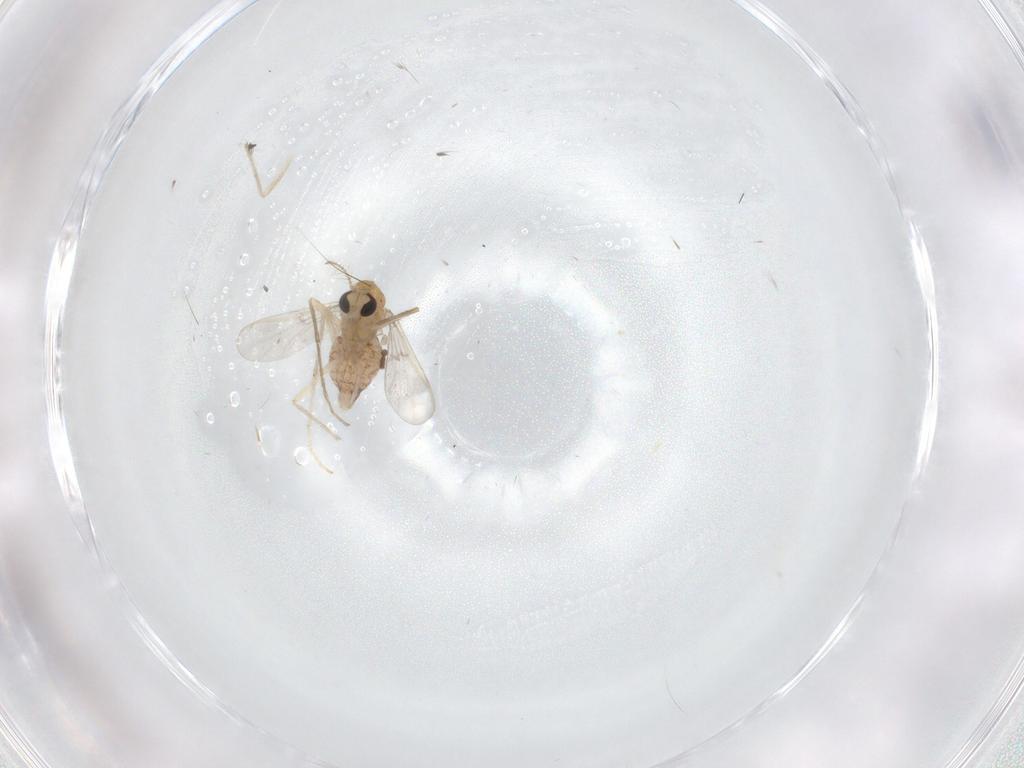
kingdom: Animalia
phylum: Arthropoda
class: Insecta
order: Diptera
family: Chironomidae
